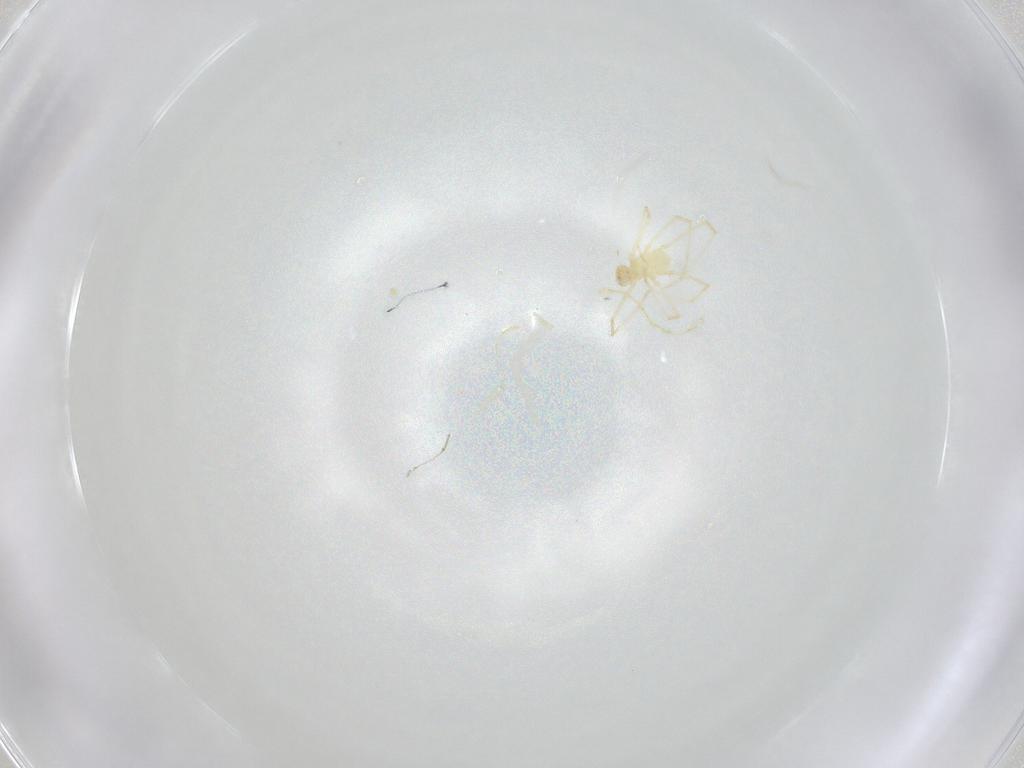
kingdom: Animalia
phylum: Arthropoda
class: Arachnida
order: Trombidiformes
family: Erythraeidae
